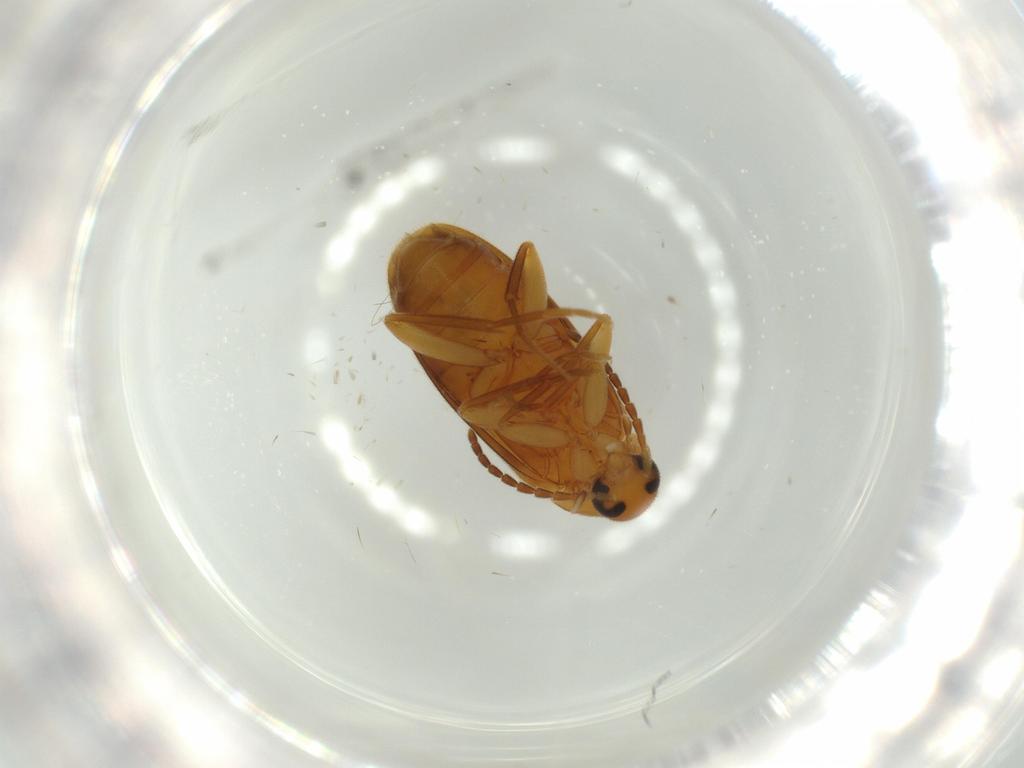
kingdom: Animalia
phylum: Arthropoda
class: Insecta
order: Coleoptera
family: Scraptiidae
